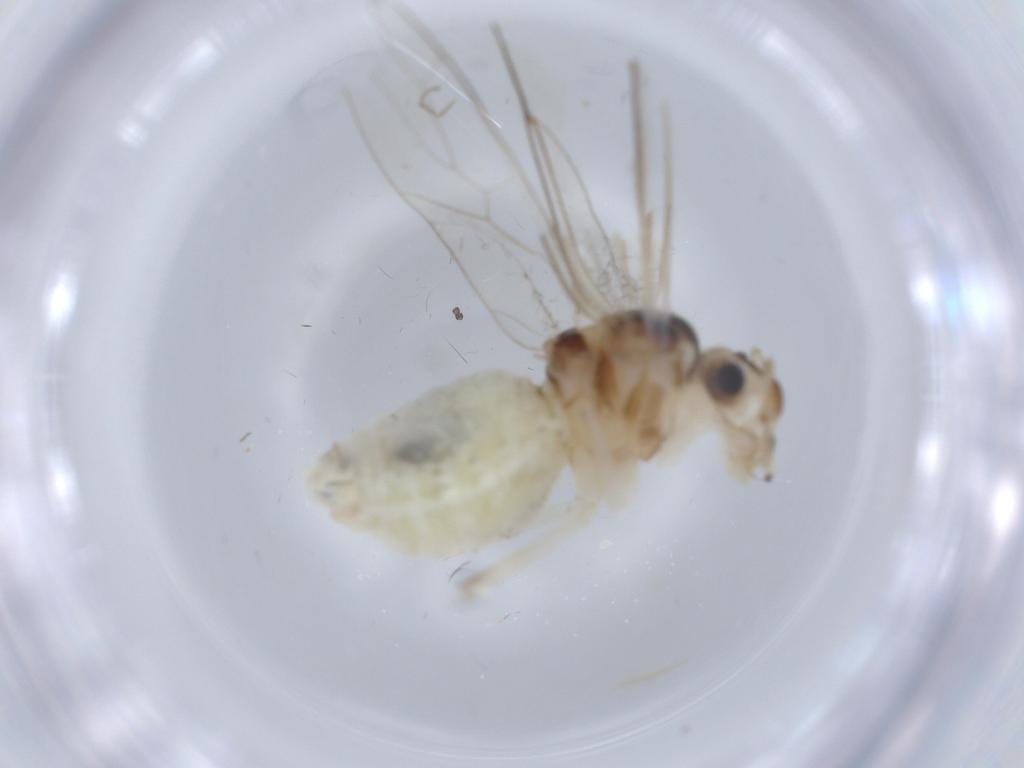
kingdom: Animalia
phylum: Arthropoda
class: Insecta
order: Psocodea
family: Stenopsocidae
